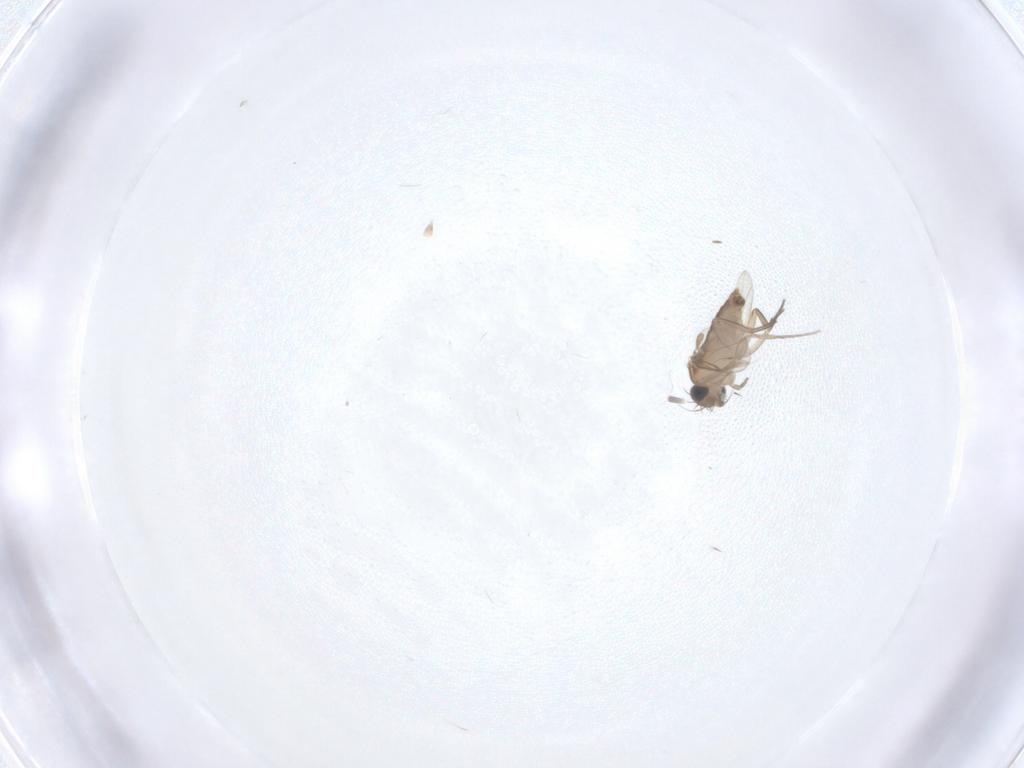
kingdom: Animalia
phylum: Arthropoda
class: Insecta
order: Diptera
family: Phoridae
